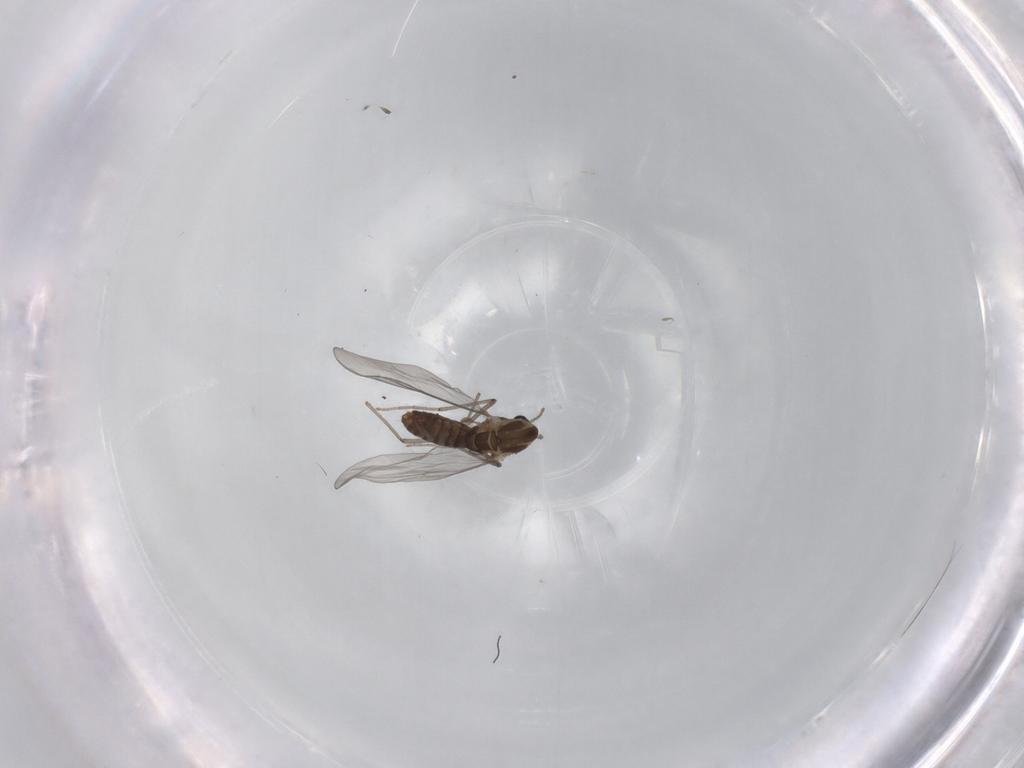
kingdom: Animalia
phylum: Arthropoda
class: Insecta
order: Diptera
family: Chironomidae
